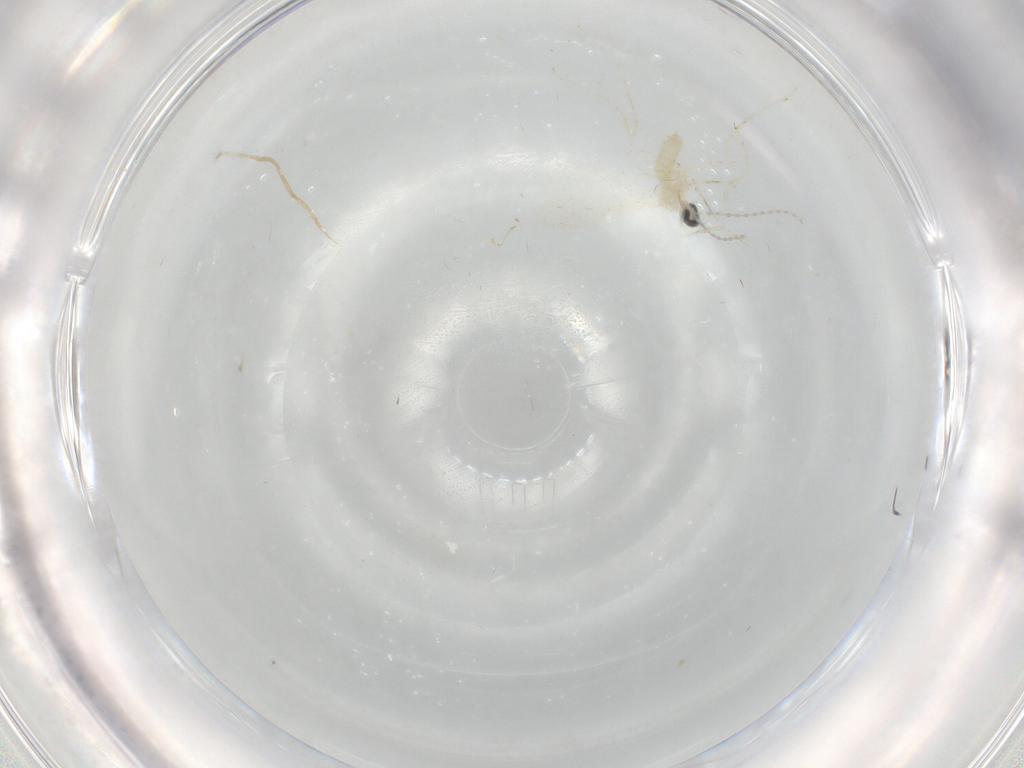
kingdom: Animalia
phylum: Arthropoda
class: Insecta
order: Diptera
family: Cecidomyiidae
